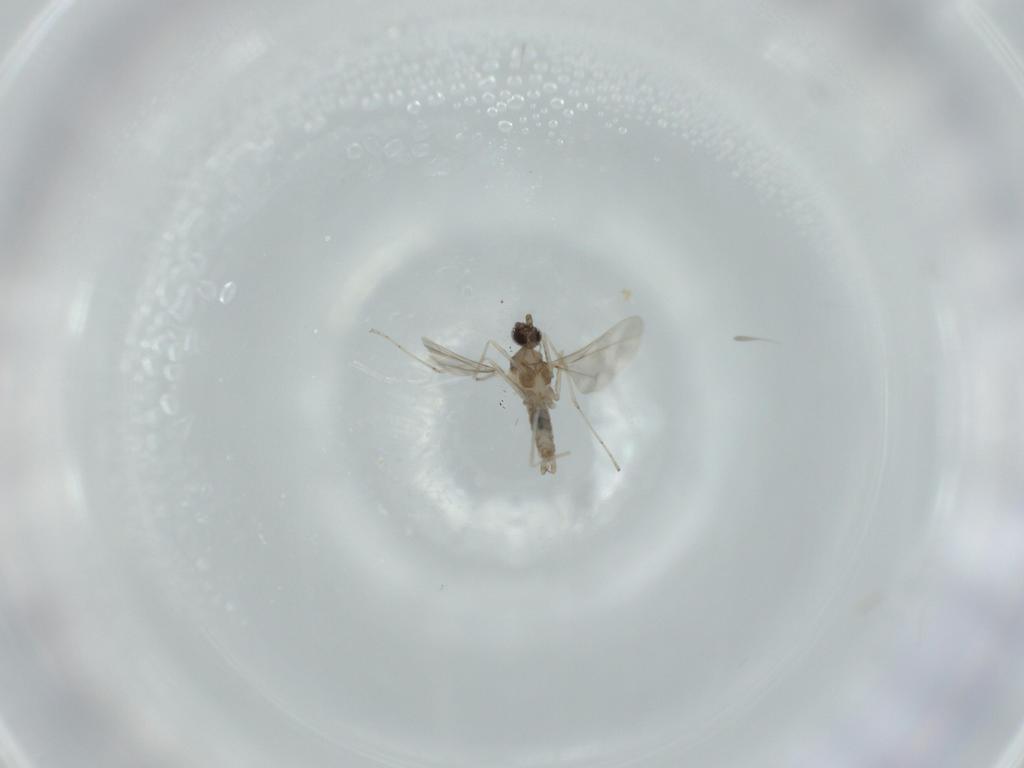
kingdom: Animalia
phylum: Arthropoda
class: Insecta
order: Diptera
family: Cecidomyiidae
